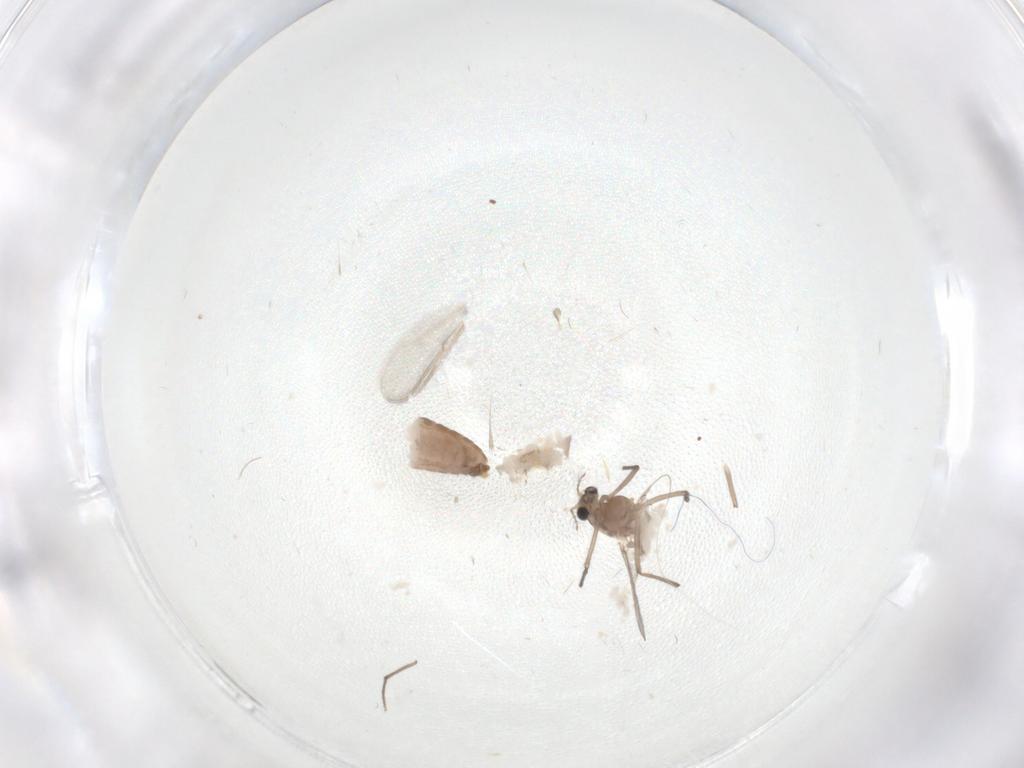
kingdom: Animalia
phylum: Arthropoda
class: Insecta
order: Diptera
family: Chironomidae
